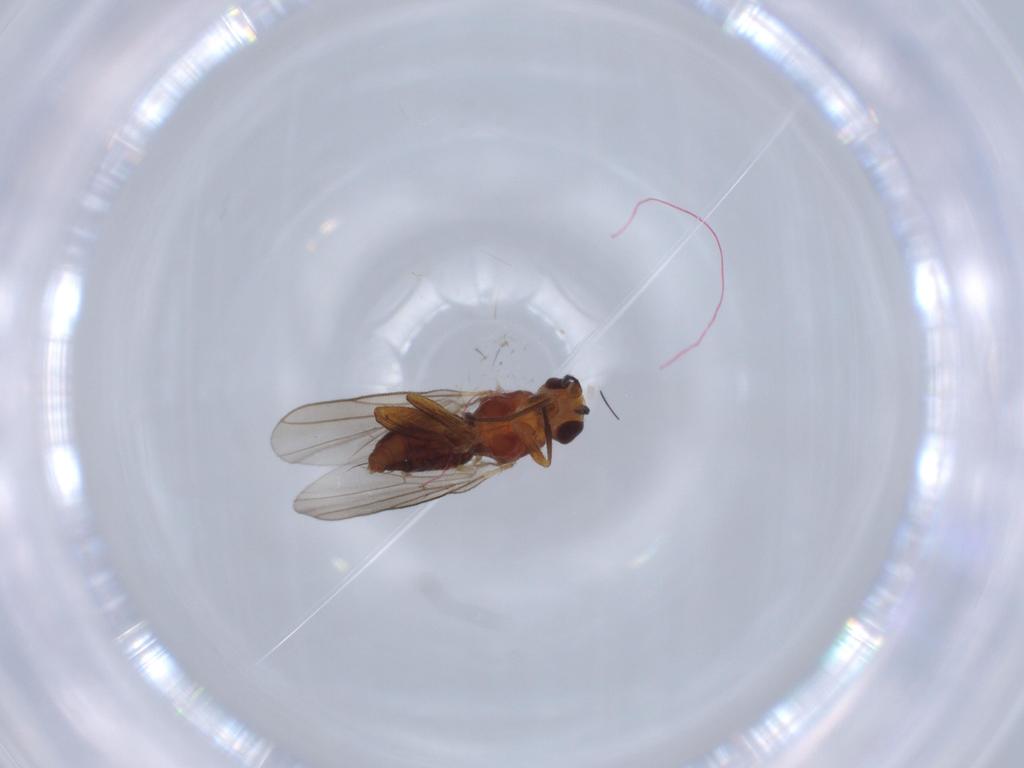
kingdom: Animalia
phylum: Arthropoda
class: Insecta
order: Diptera
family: Chloropidae
